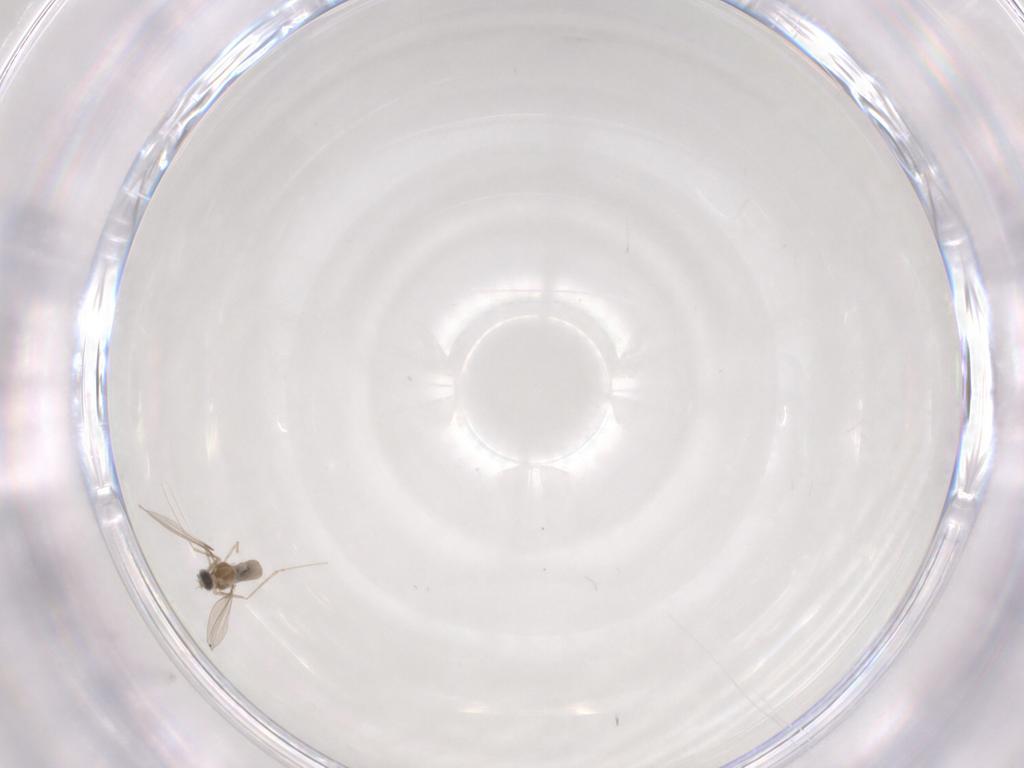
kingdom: Animalia
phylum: Arthropoda
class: Insecta
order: Diptera
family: Cecidomyiidae
